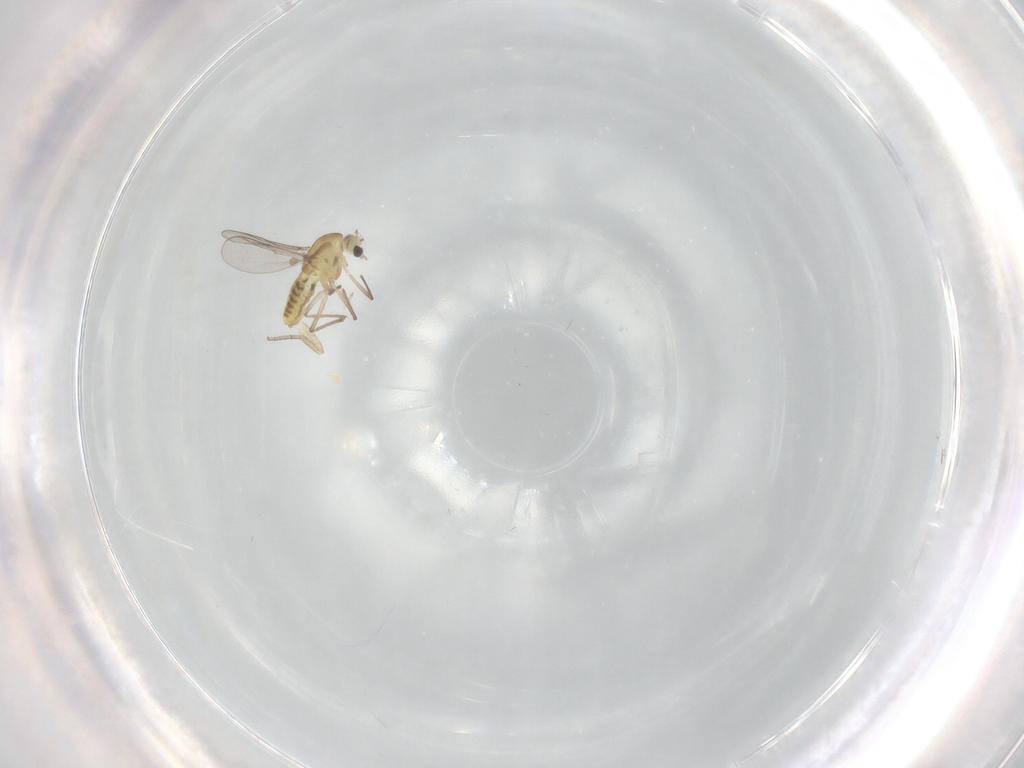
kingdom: Animalia
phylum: Arthropoda
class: Insecta
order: Diptera
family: Chironomidae
